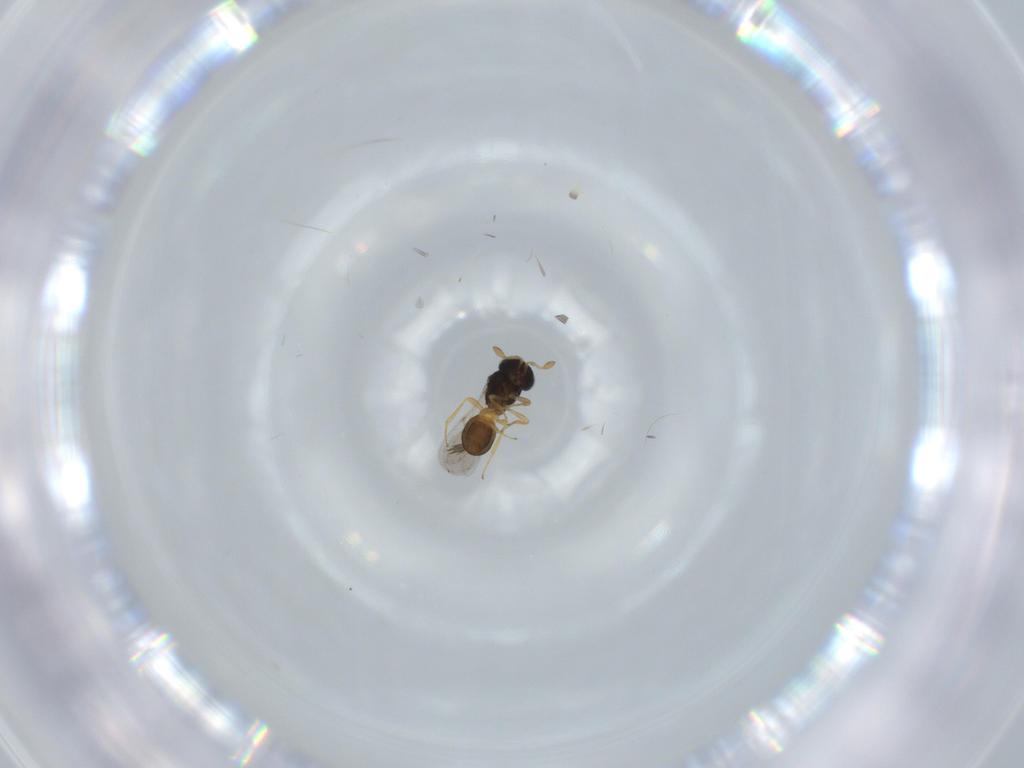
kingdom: Animalia
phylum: Arthropoda
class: Insecta
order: Hymenoptera
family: Scelionidae
